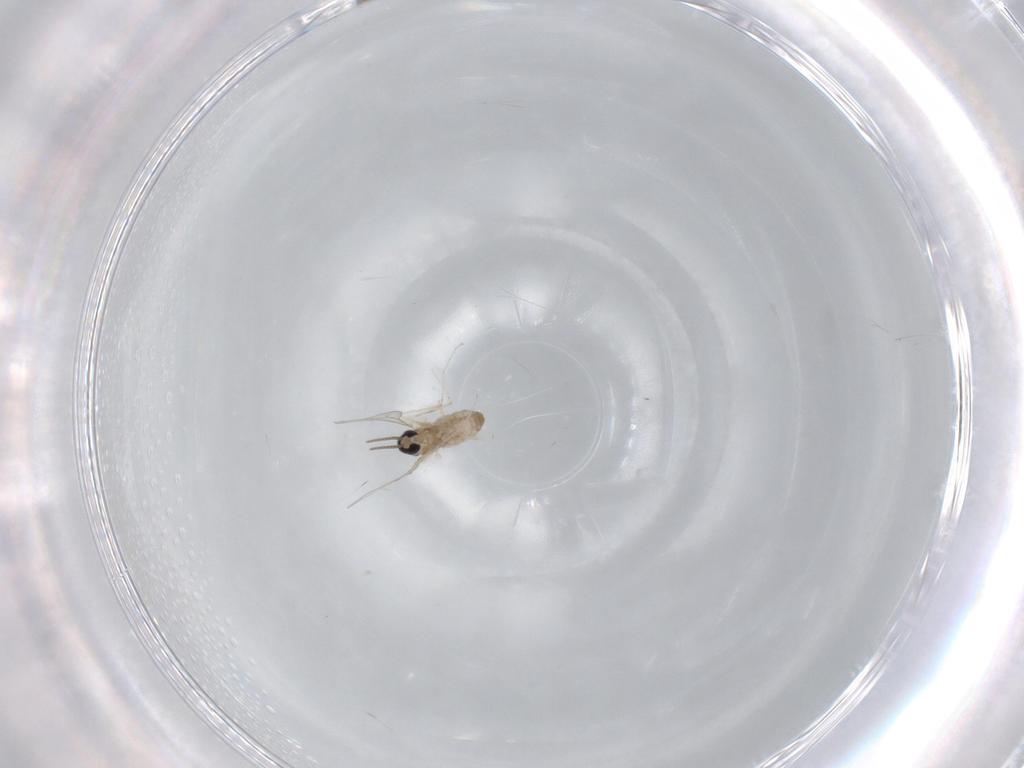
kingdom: Animalia
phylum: Arthropoda
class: Insecta
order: Diptera
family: Cecidomyiidae
